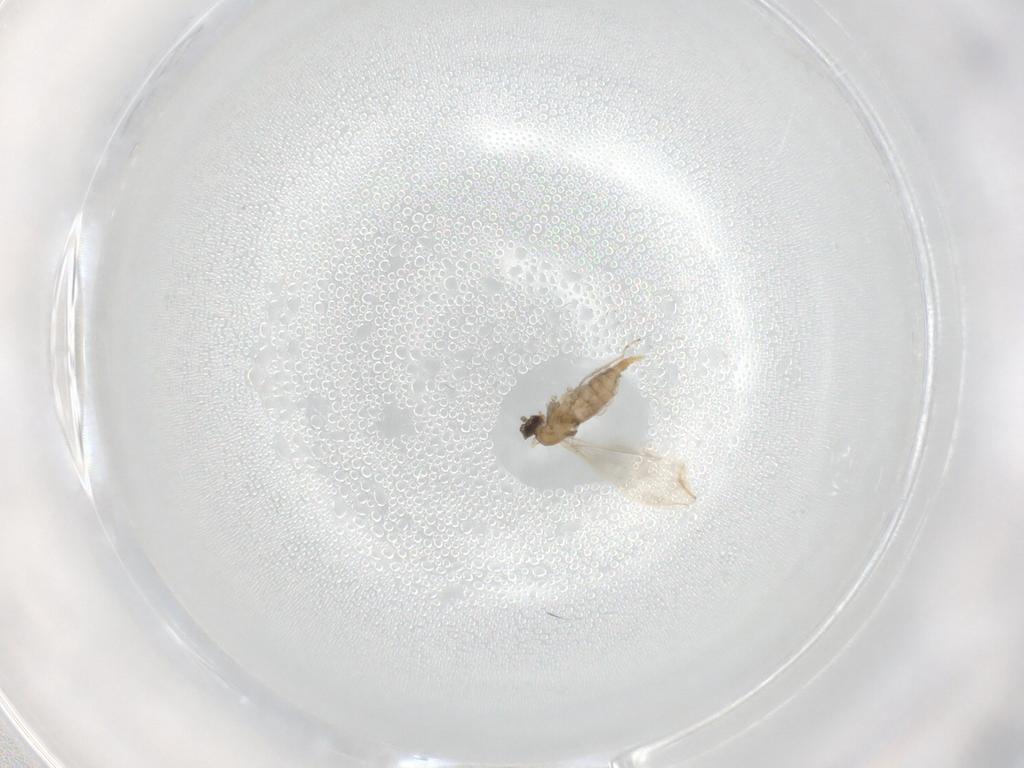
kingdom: Animalia
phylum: Arthropoda
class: Insecta
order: Diptera
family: Cecidomyiidae
